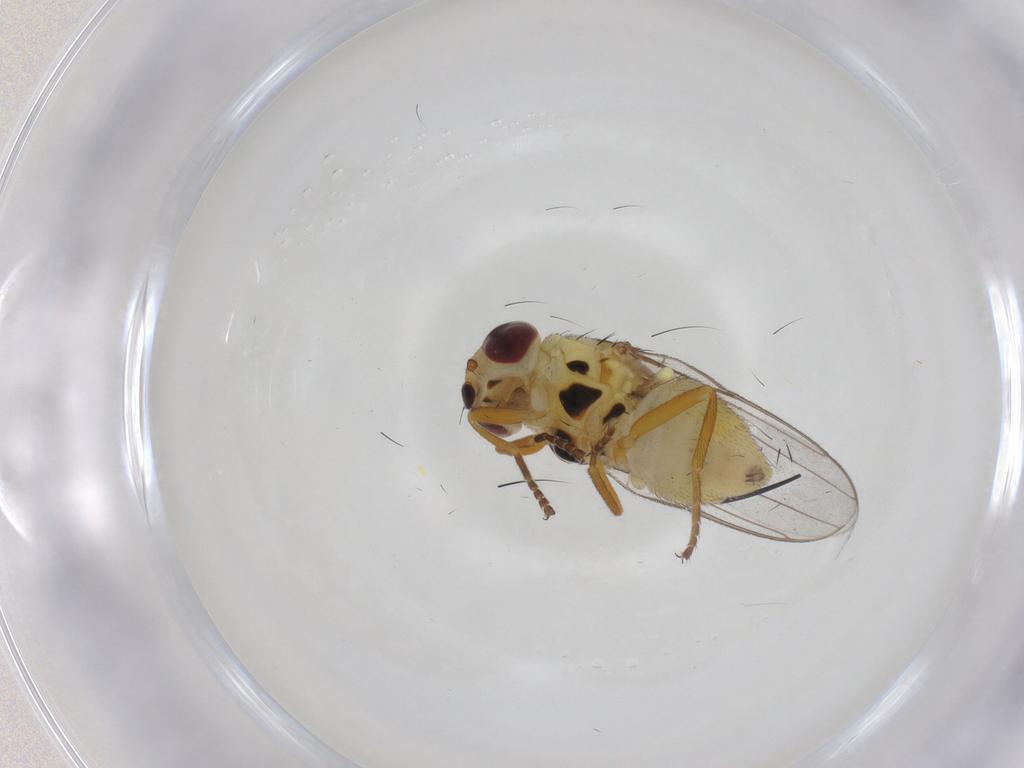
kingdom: Animalia
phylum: Arthropoda
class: Insecta
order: Diptera
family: Chloropidae
